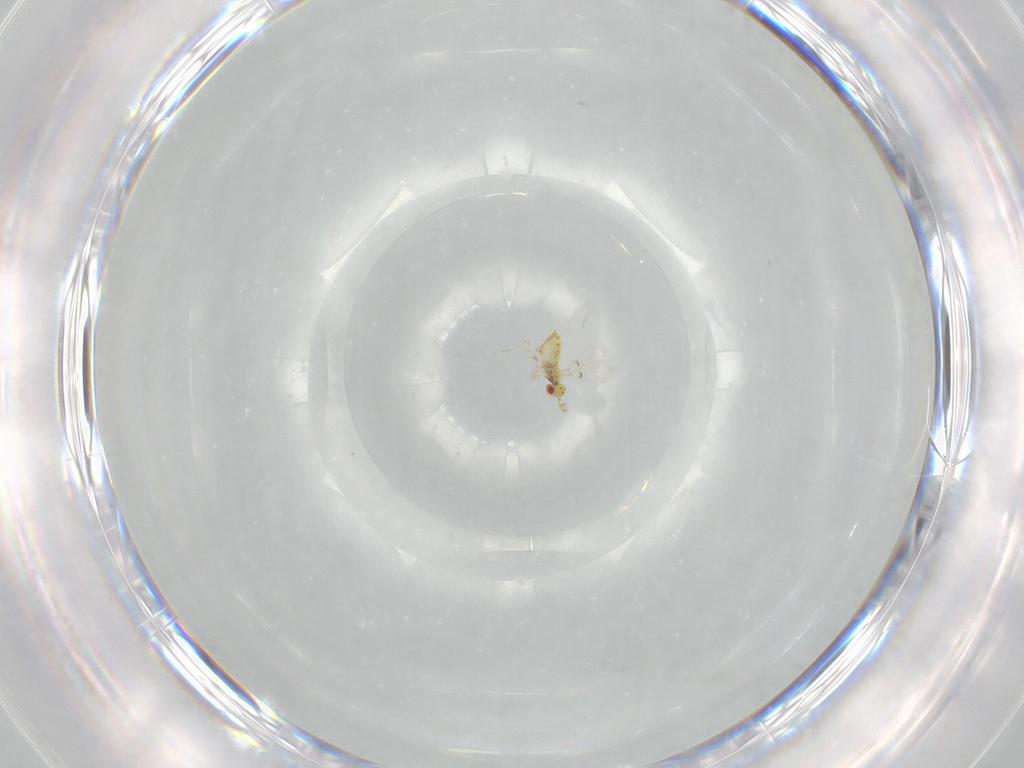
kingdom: Animalia
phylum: Arthropoda
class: Insecta
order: Hymenoptera
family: Trichogrammatidae
